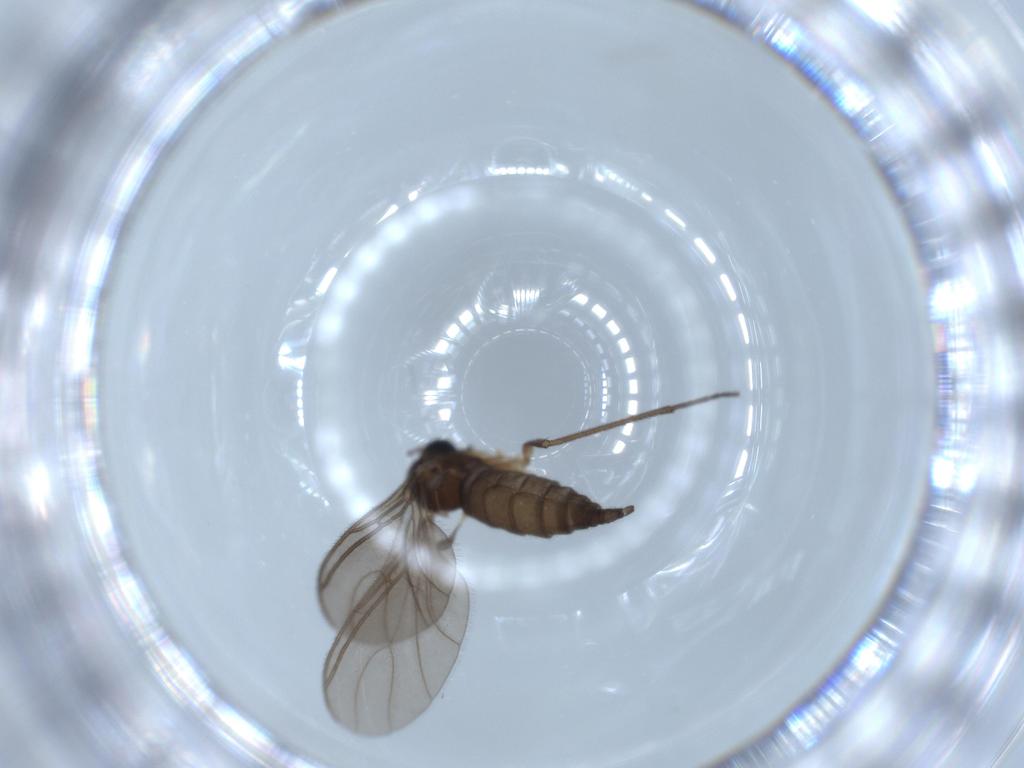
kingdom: Animalia
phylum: Arthropoda
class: Insecta
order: Diptera
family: Sciaridae
